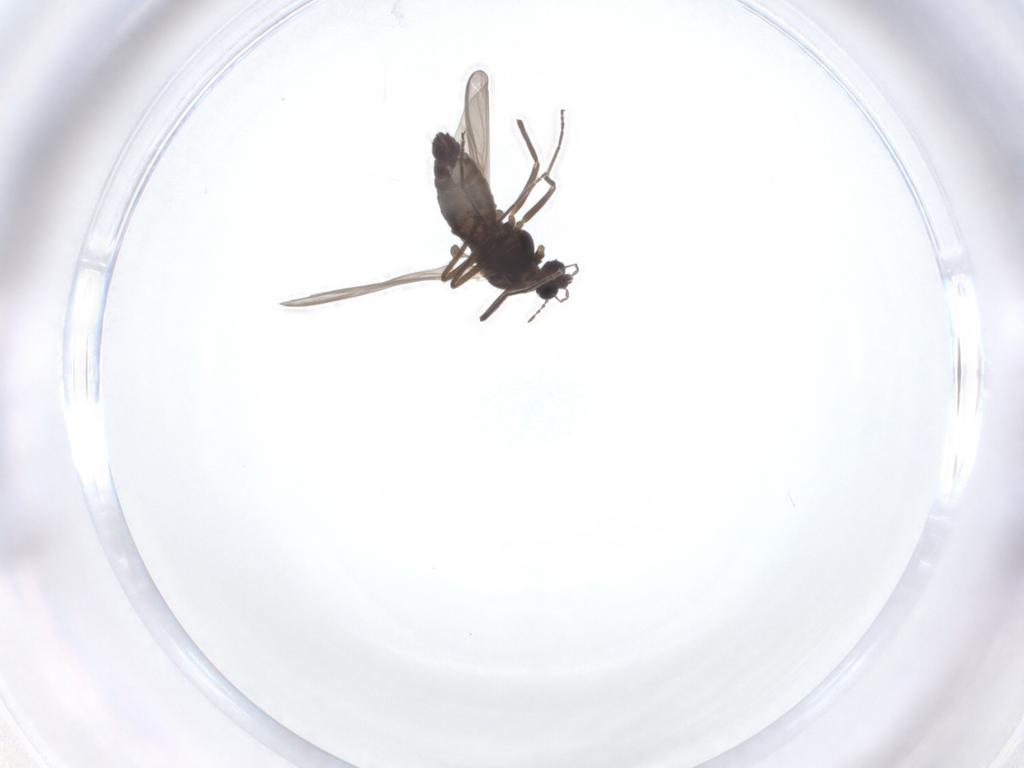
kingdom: Animalia
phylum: Arthropoda
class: Insecta
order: Diptera
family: Chironomidae
